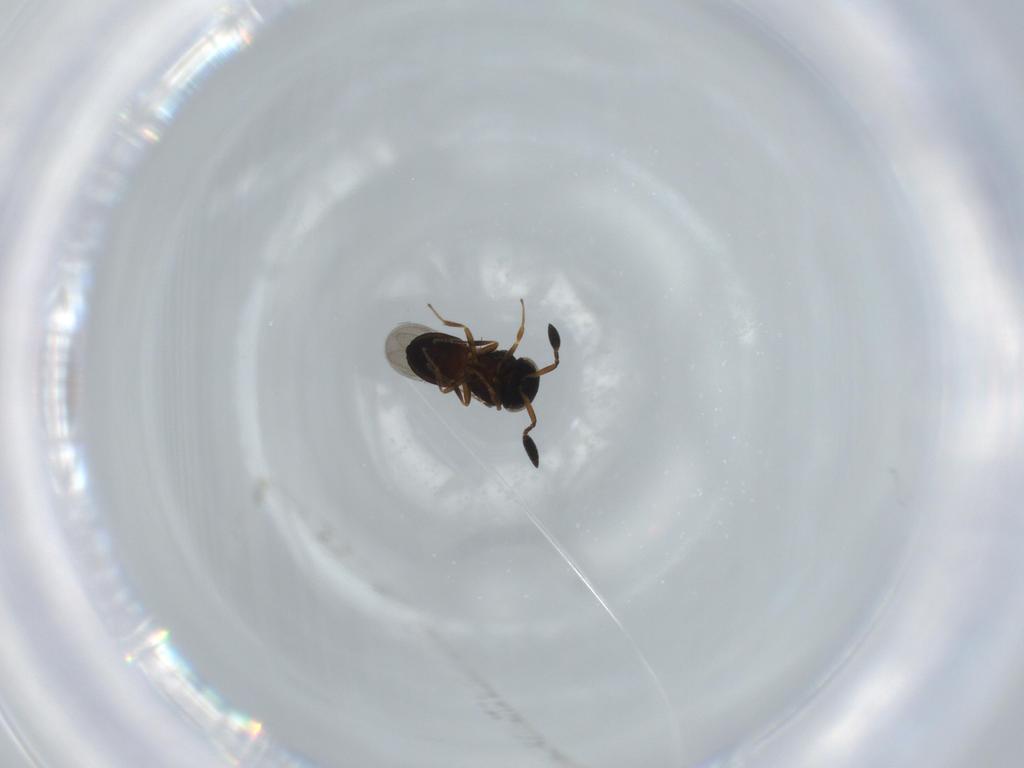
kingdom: Animalia
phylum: Arthropoda
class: Insecta
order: Hymenoptera
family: Scelionidae
